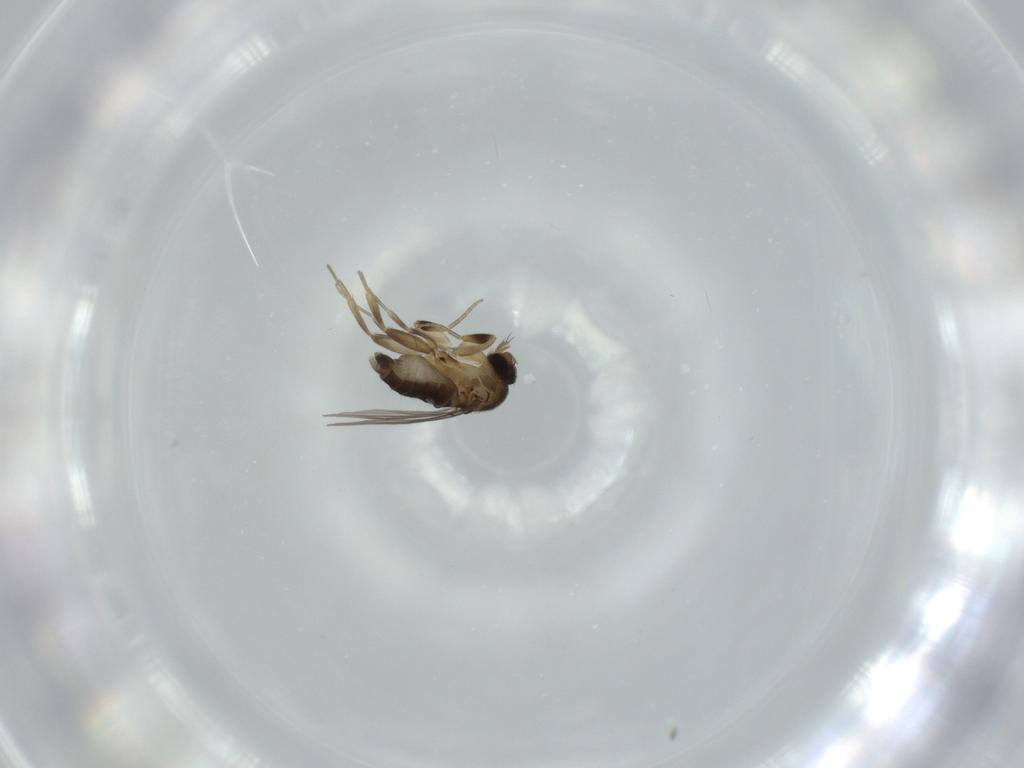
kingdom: Animalia
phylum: Arthropoda
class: Insecta
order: Diptera
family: Phoridae
